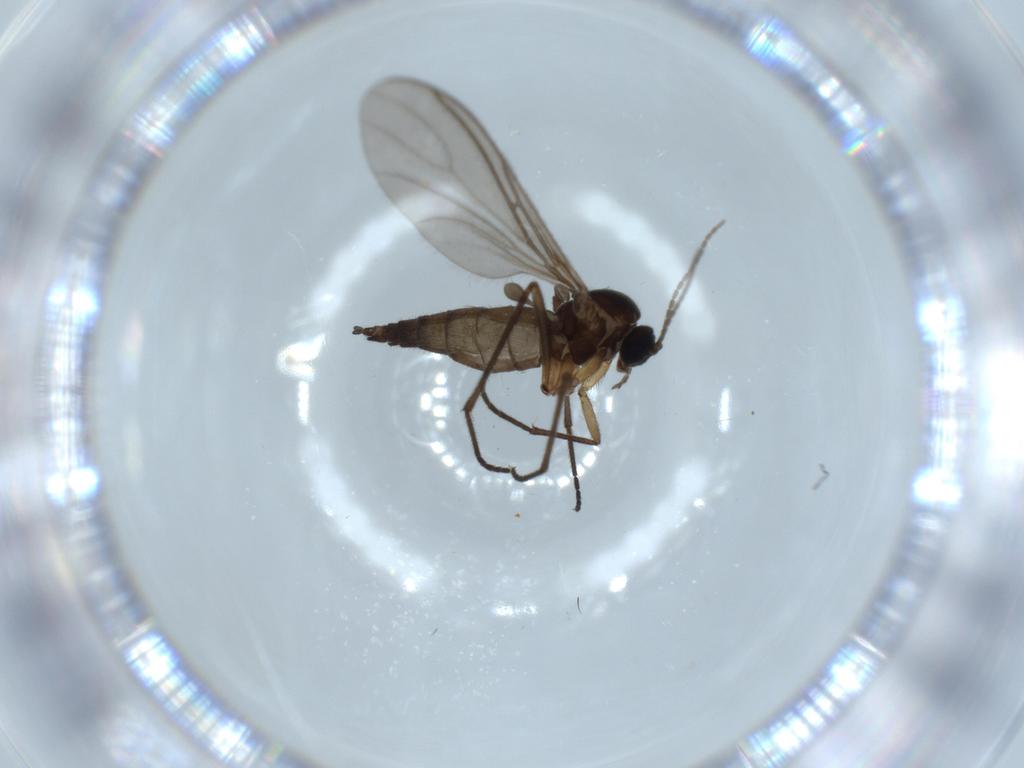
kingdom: Animalia
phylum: Arthropoda
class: Insecta
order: Diptera
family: Sciaridae
